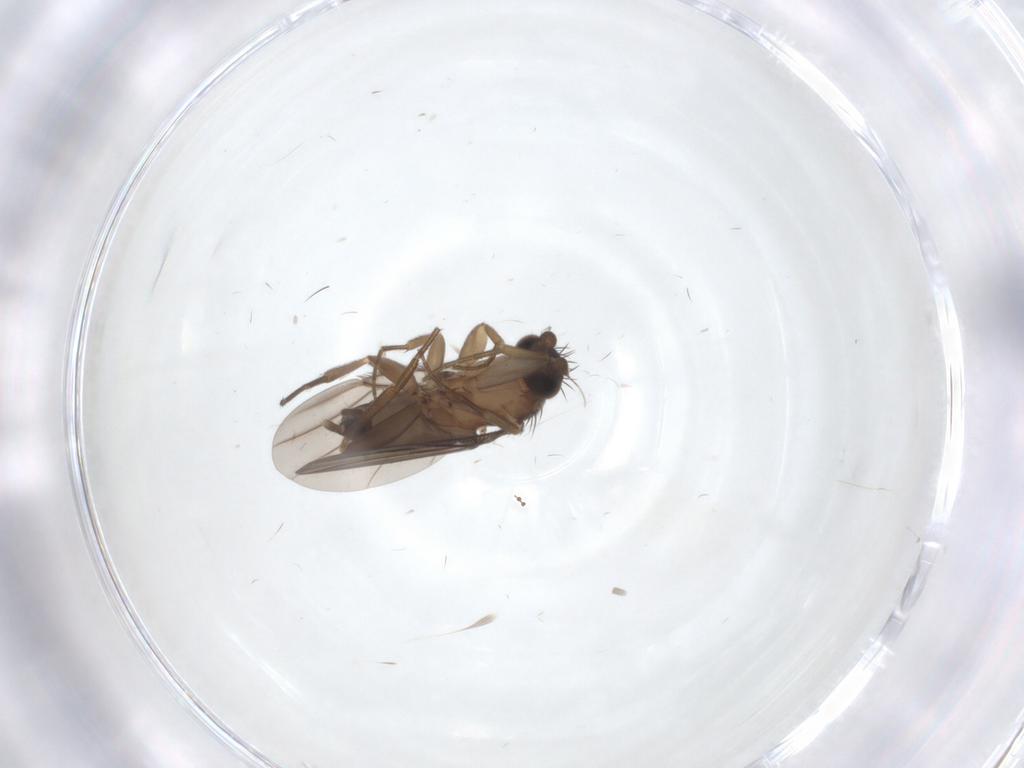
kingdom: Animalia
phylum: Arthropoda
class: Insecta
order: Diptera
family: Cecidomyiidae
